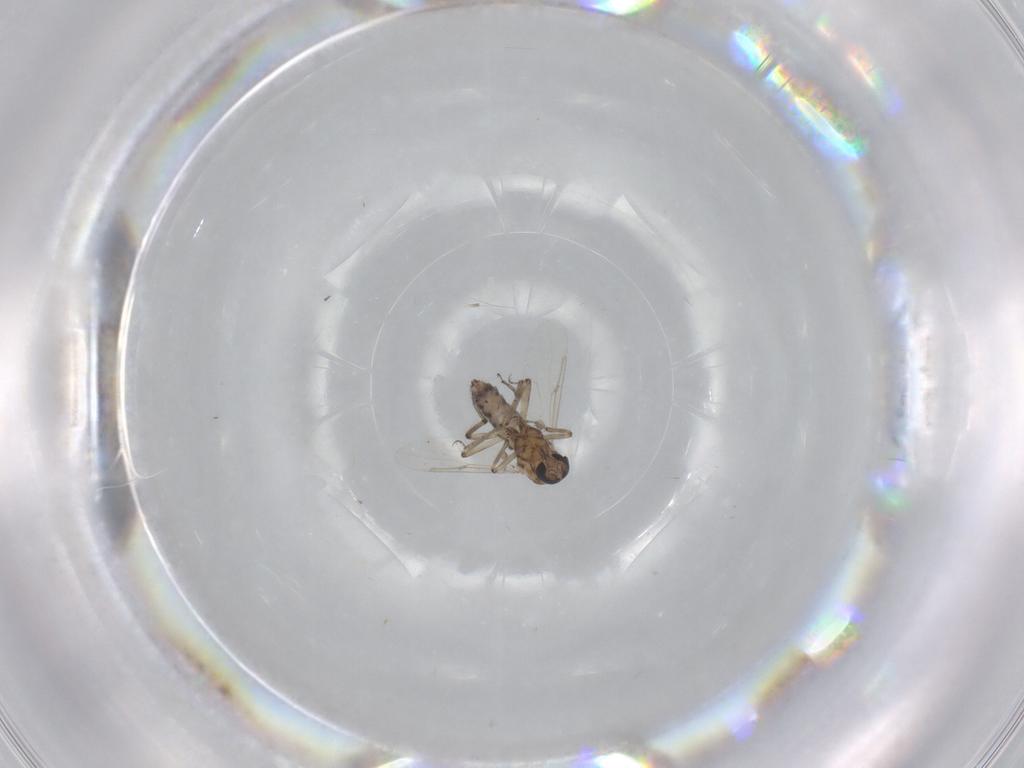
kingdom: Animalia
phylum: Arthropoda
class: Insecta
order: Diptera
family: Ceratopogonidae
